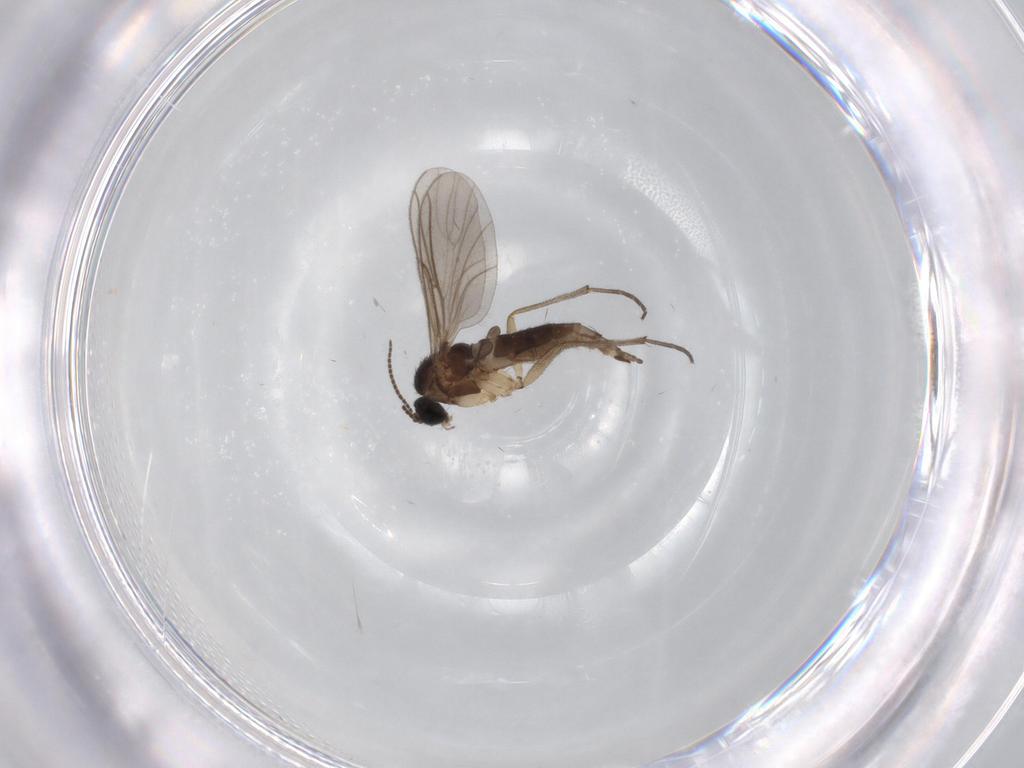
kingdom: Animalia
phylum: Arthropoda
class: Insecta
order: Diptera
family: Sciaridae
